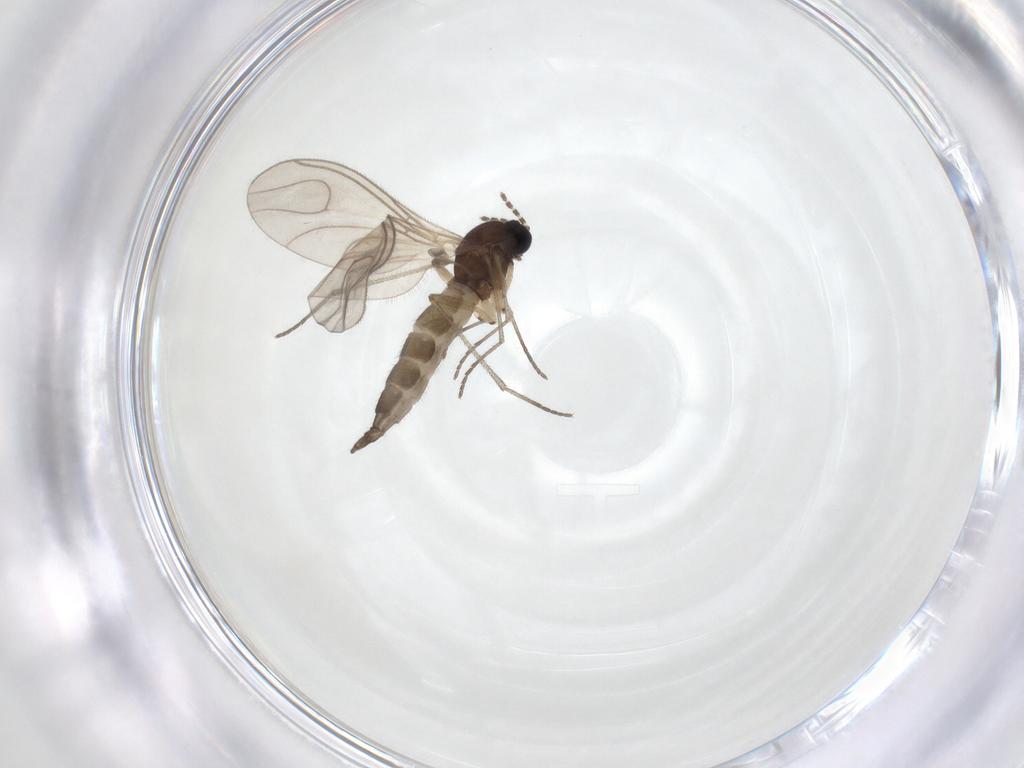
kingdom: Animalia
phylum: Arthropoda
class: Insecta
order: Diptera
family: Sciaridae
